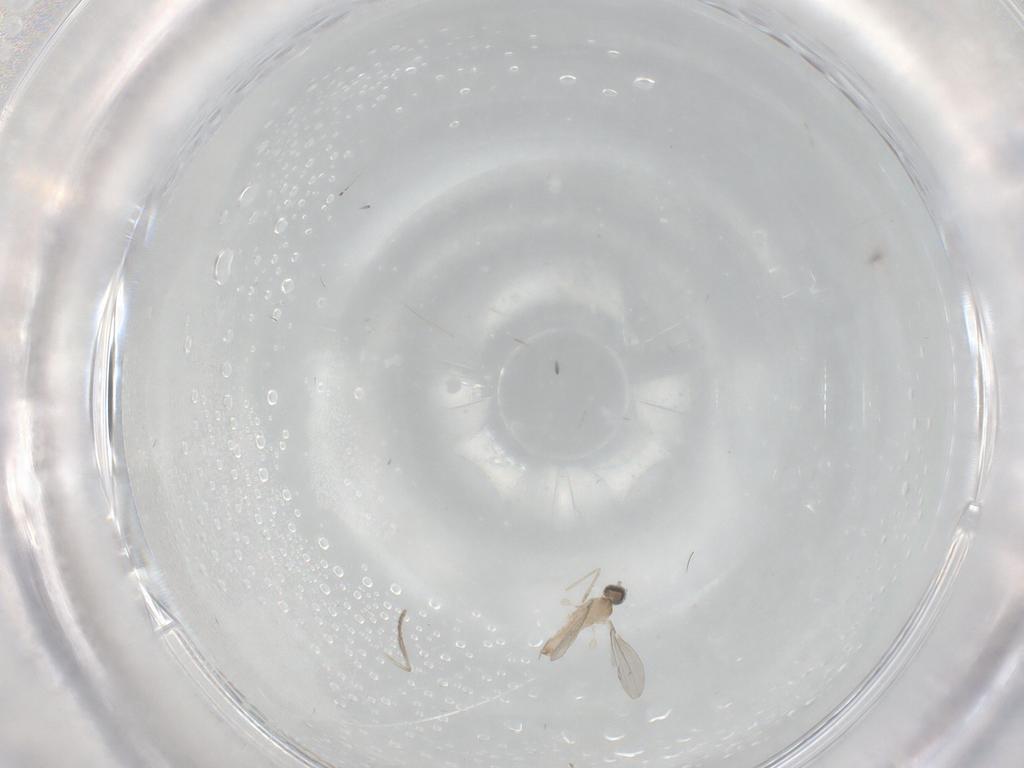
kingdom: Animalia
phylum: Arthropoda
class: Insecta
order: Diptera
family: Cecidomyiidae
